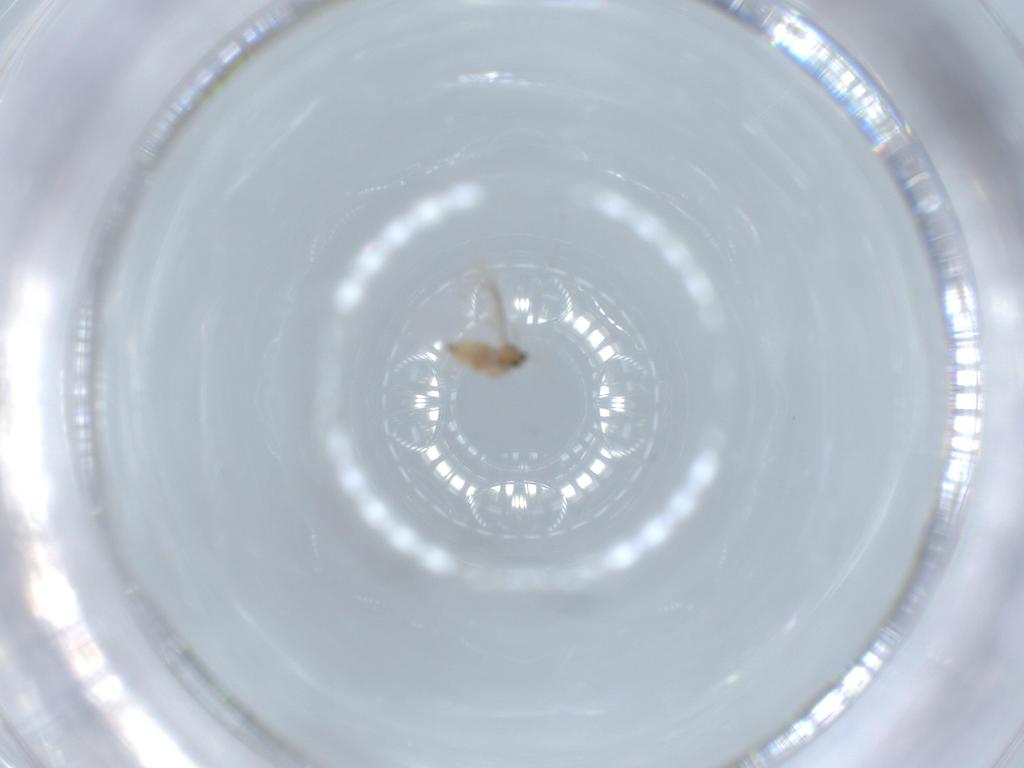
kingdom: Animalia
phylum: Arthropoda
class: Insecta
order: Diptera
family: Cecidomyiidae
